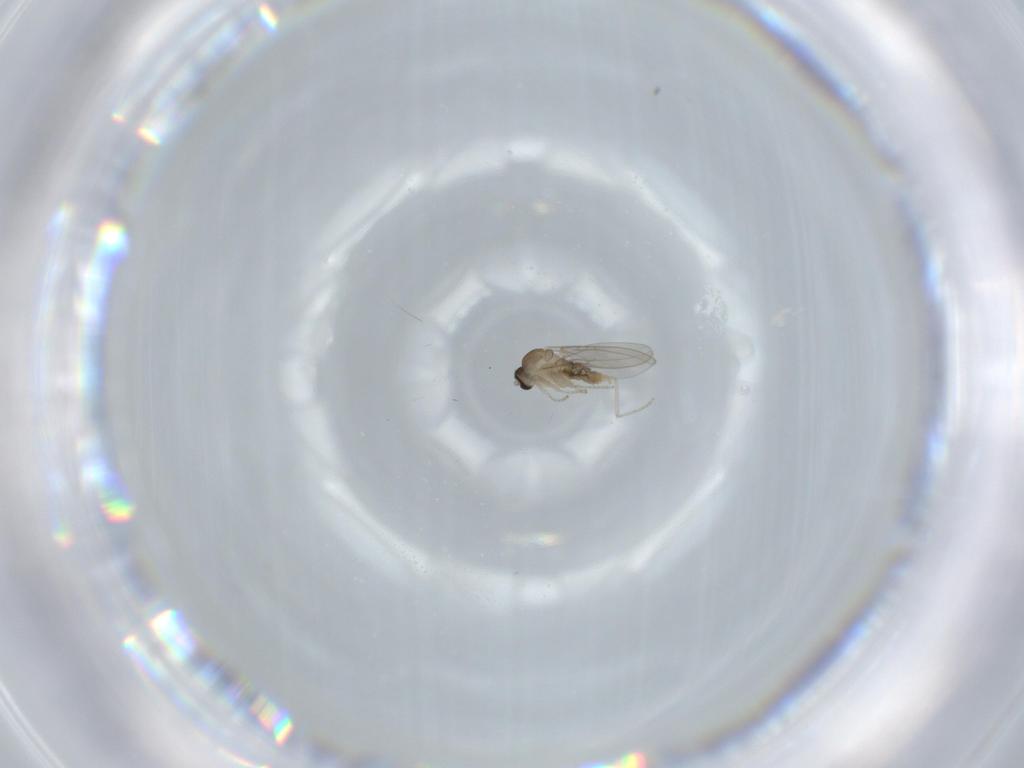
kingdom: Animalia
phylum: Arthropoda
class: Insecta
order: Diptera
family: Cecidomyiidae
